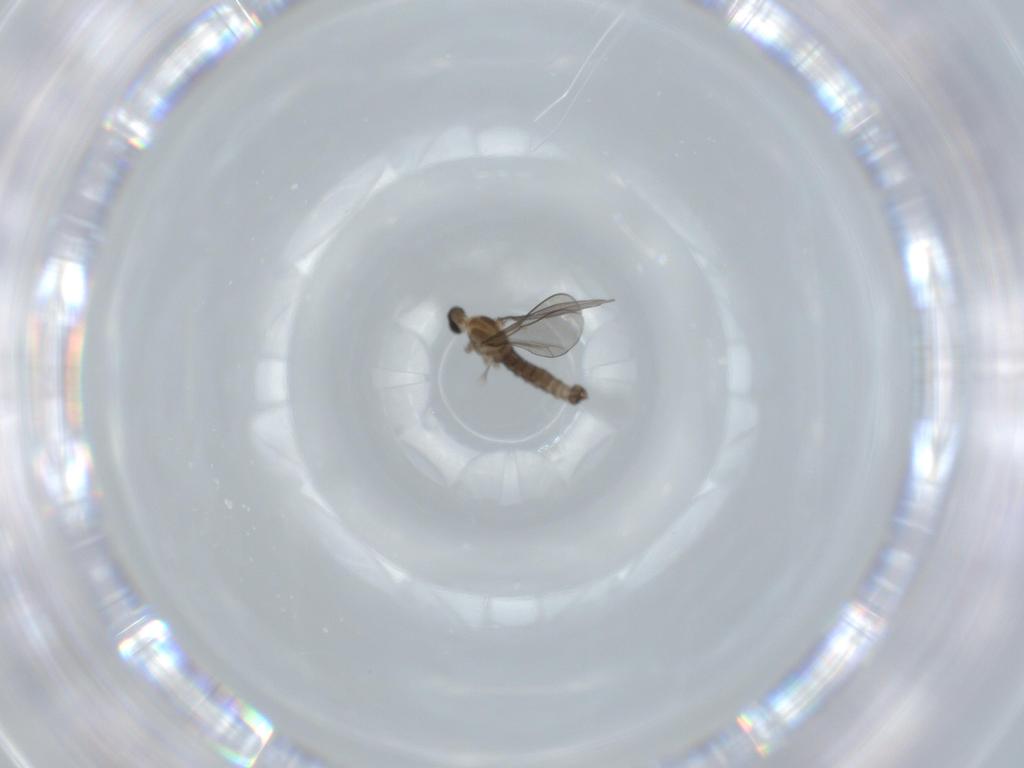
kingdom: Animalia
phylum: Arthropoda
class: Insecta
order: Diptera
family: Cecidomyiidae
